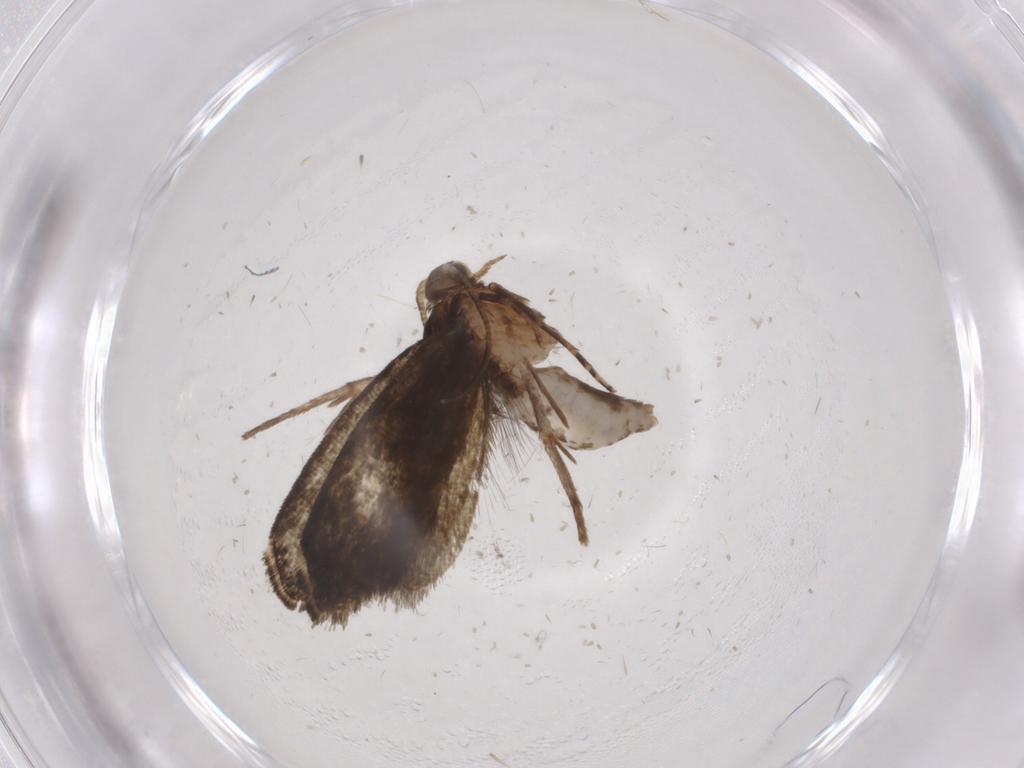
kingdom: Animalia
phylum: Arthropoda
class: Insecta
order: Lepidoptera
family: Tineidae
